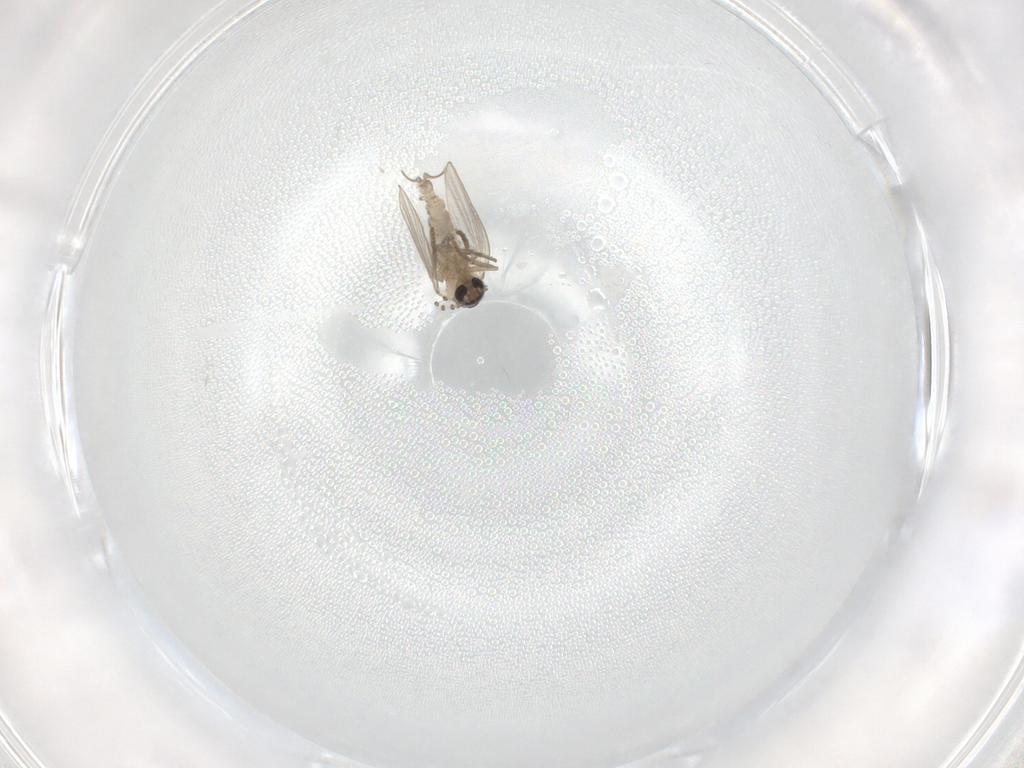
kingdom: Animalia
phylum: Arthropoda
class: Insecta
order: Diptera
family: Psychodidae
